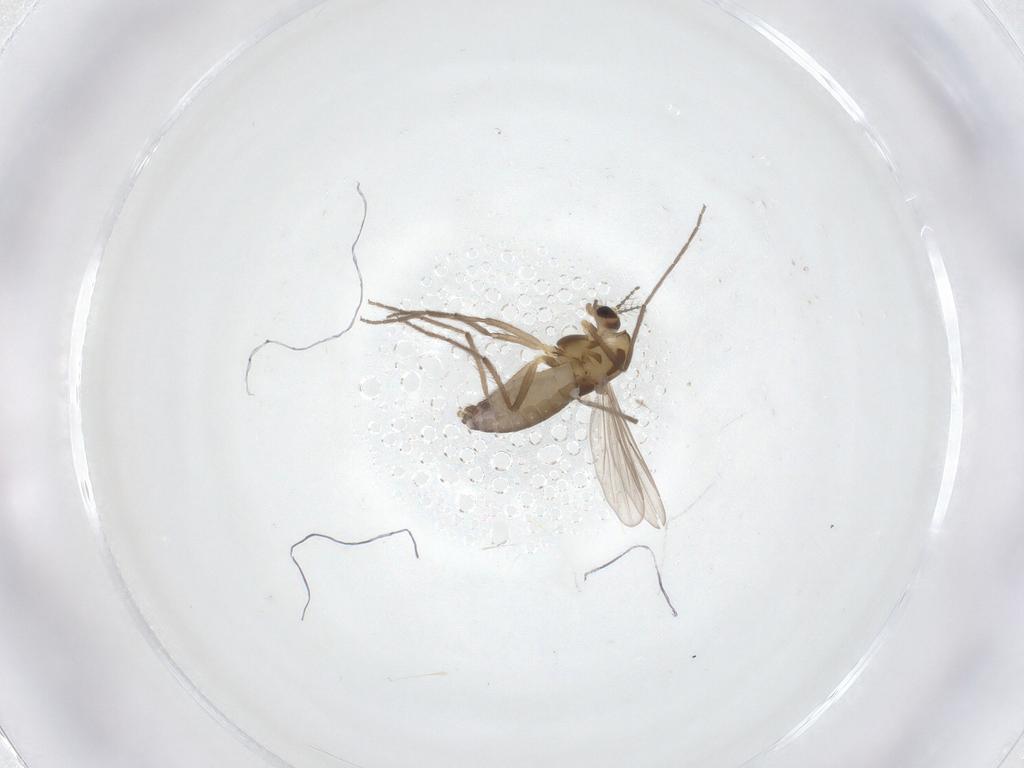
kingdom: Animalia
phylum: Arthropoda
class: Insecta
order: Diptera
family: Chironomidae
